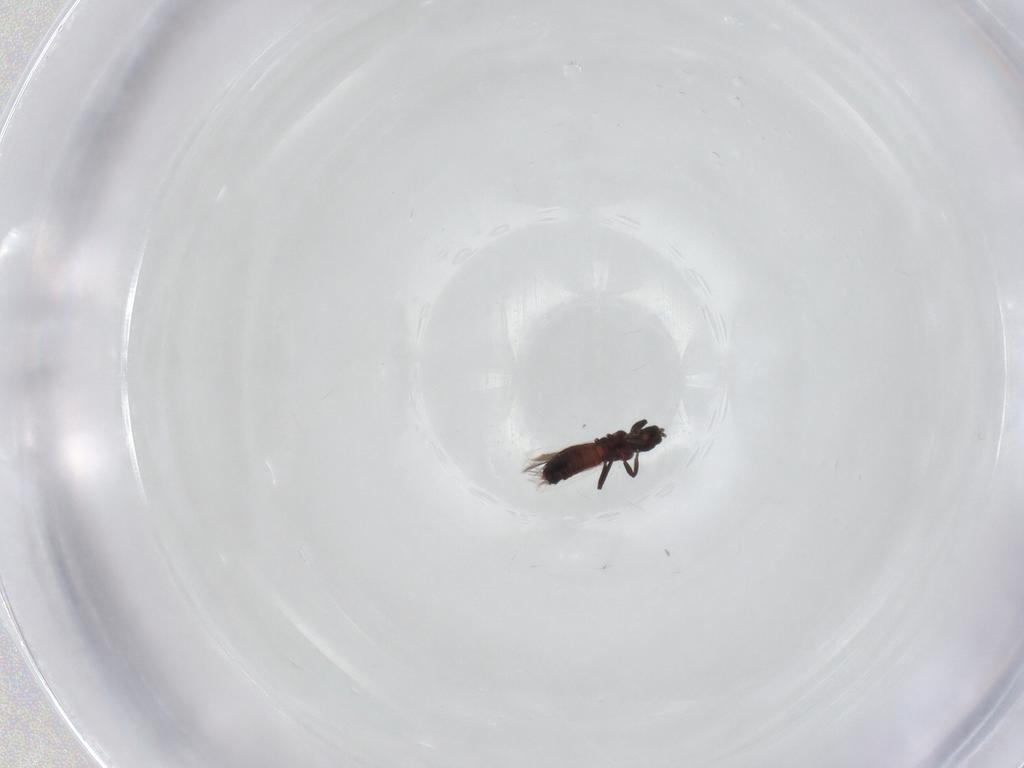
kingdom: Animalia
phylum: Arthropoda
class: Insecta
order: Thysanoptera
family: Aeolothripidae
